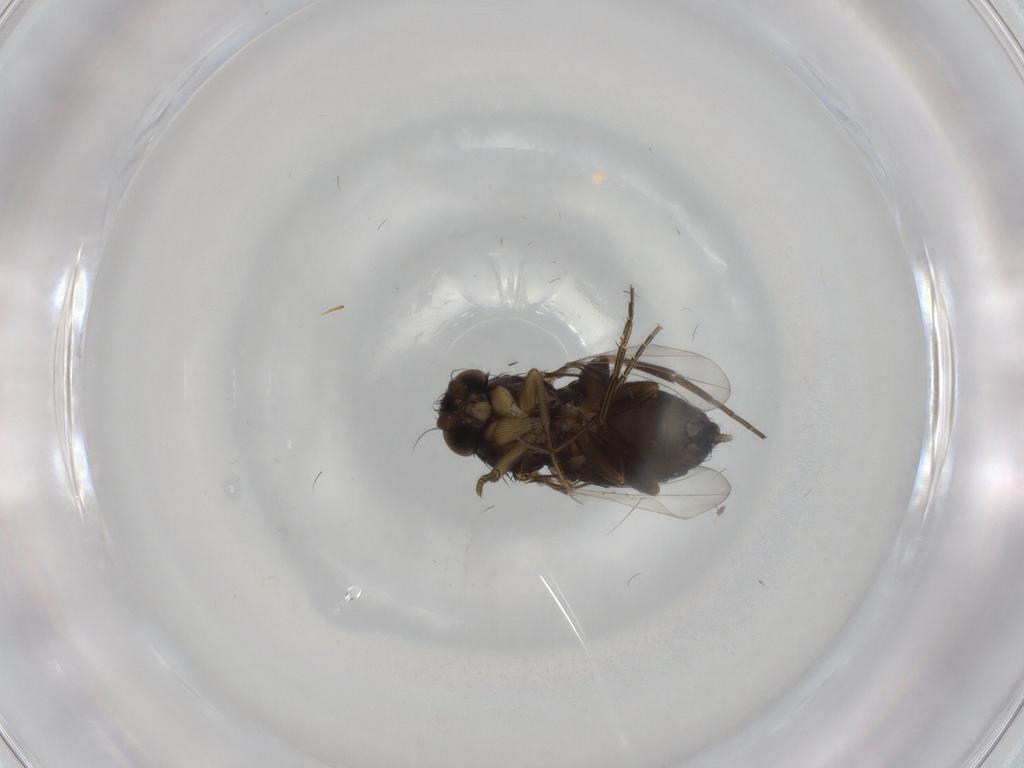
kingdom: Animalia
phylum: Arthropoda
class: Insecta
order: Diptera
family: Phoridae
